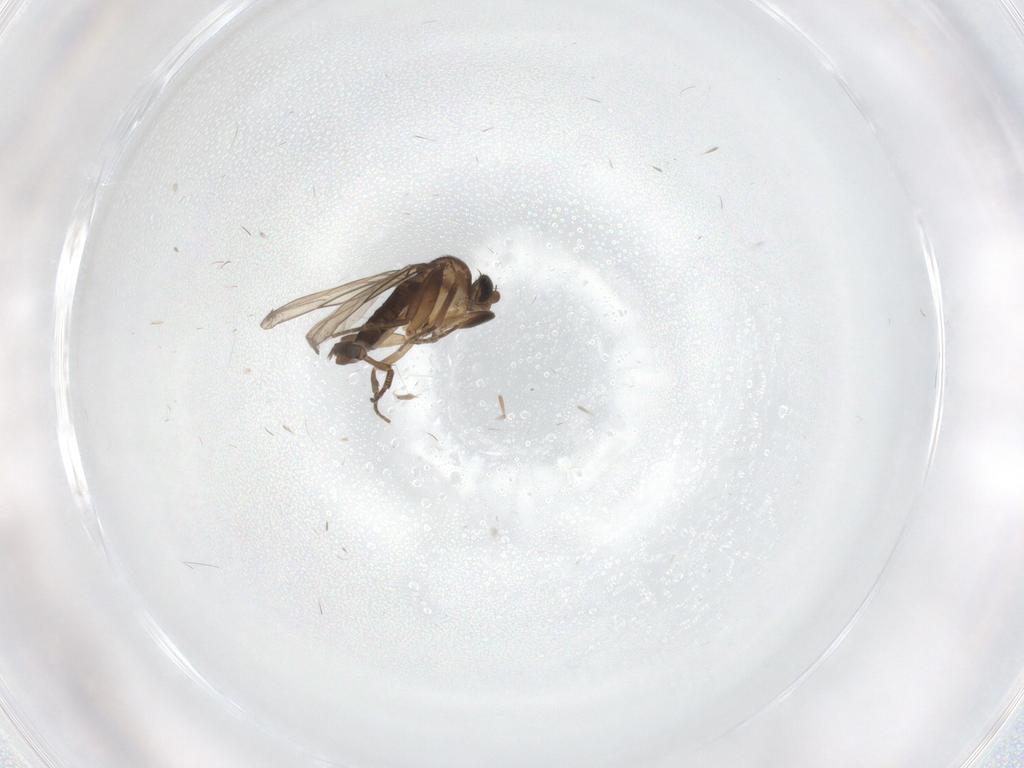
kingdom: Animalia
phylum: Arthropoda
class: Insecta
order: Diptera
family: Phoridae
